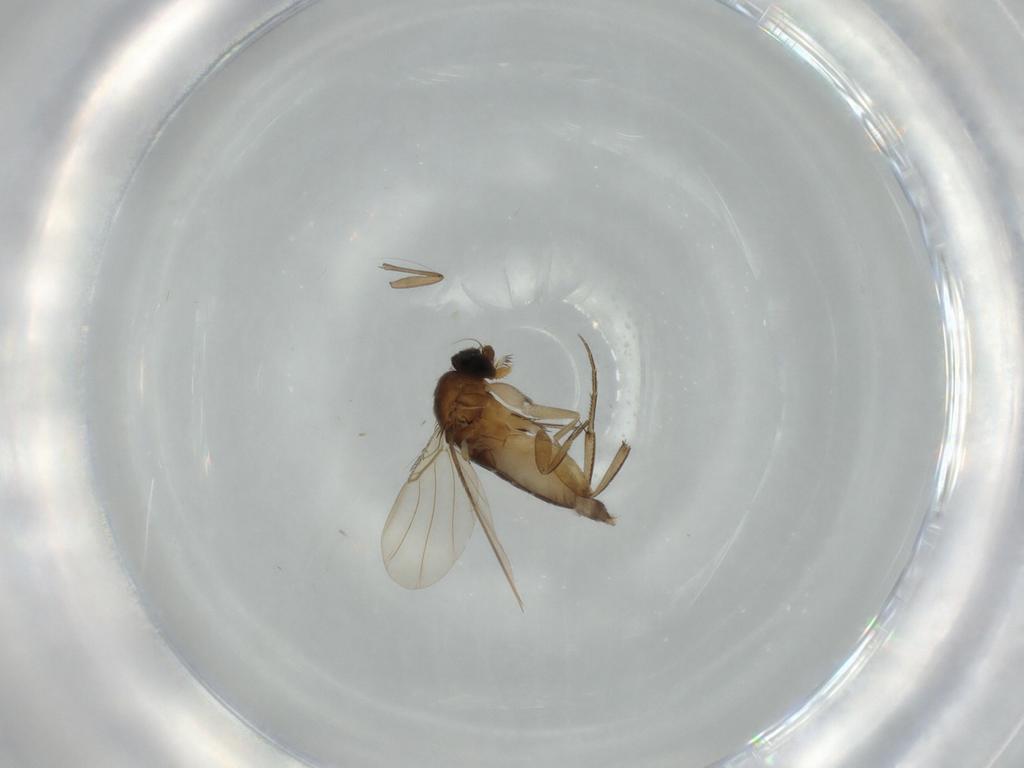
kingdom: Animalia
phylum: Arthropoda
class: Insecta
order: Diptera
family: Phoridae
